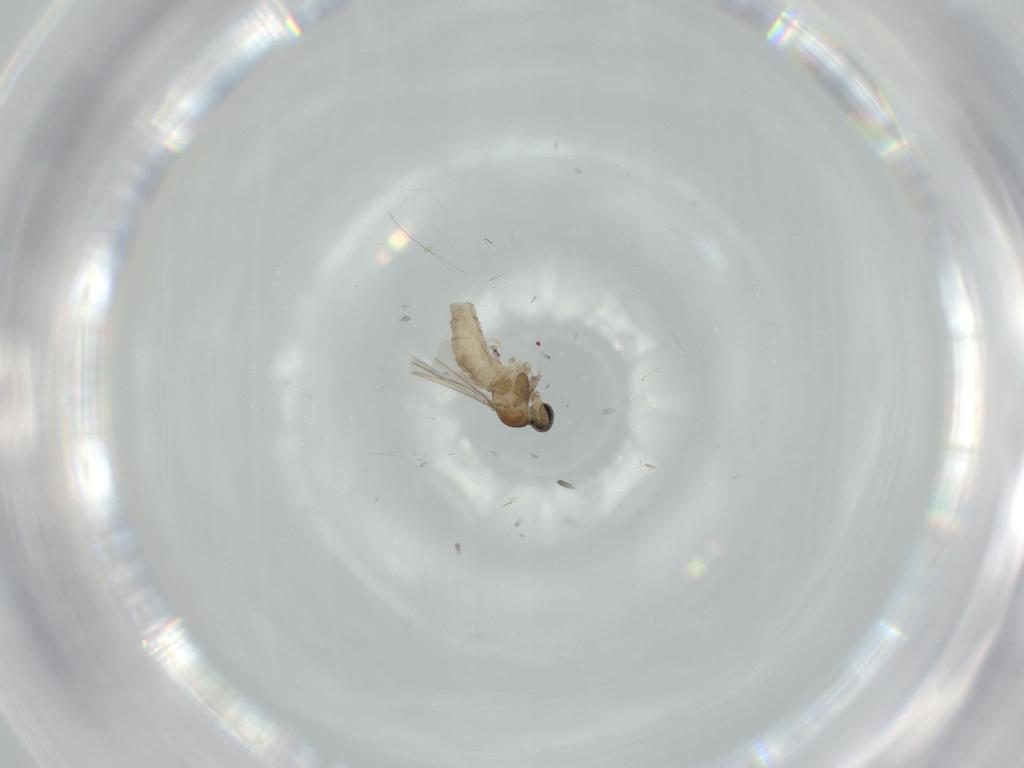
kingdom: Animalia
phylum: Arthropoda
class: Insecta
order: Diptera
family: Cecidomyiidae
